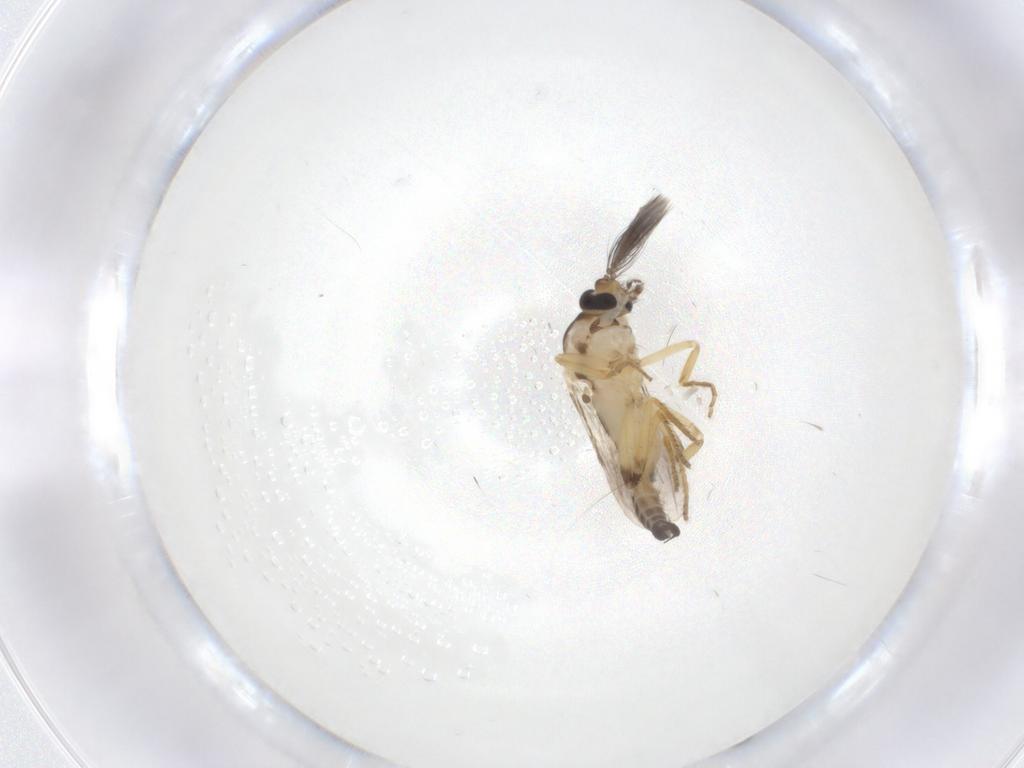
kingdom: Animalia
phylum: Arthropoda
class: Insecta
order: Diptera
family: Ceratopogonidae
